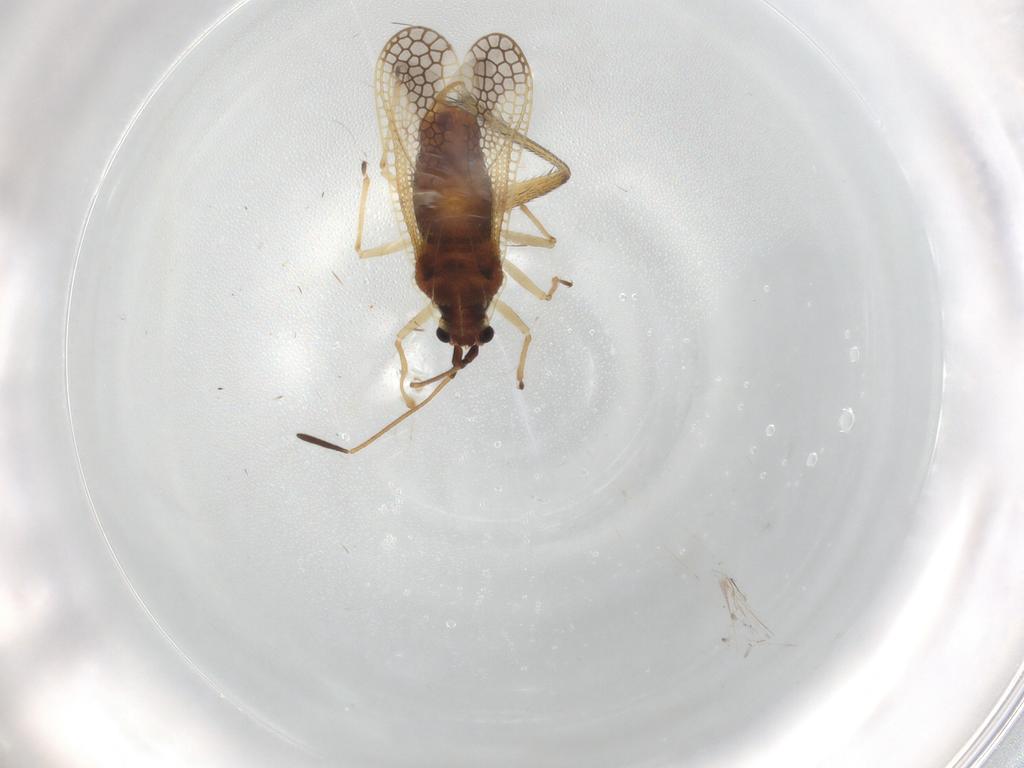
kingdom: Animalia
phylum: Arthropoda
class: Insecta
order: Hemiptera
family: Tingidae
